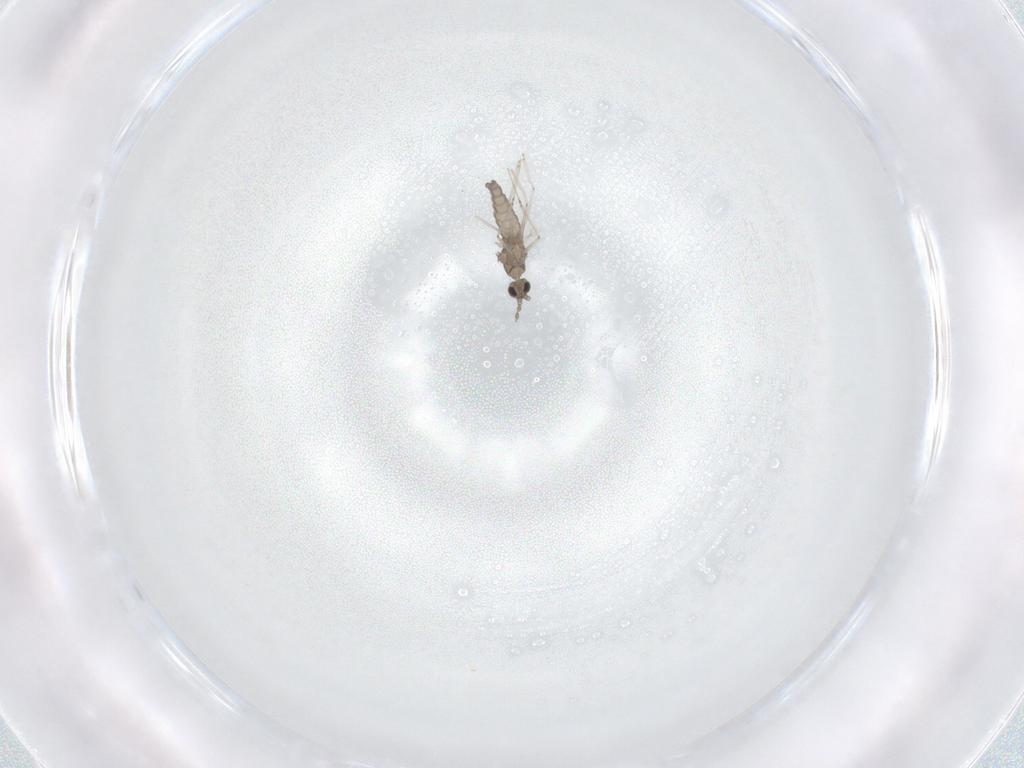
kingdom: Animalia
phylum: Arthropoda
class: Insecta
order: Diptera
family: Cecidomyiidae
